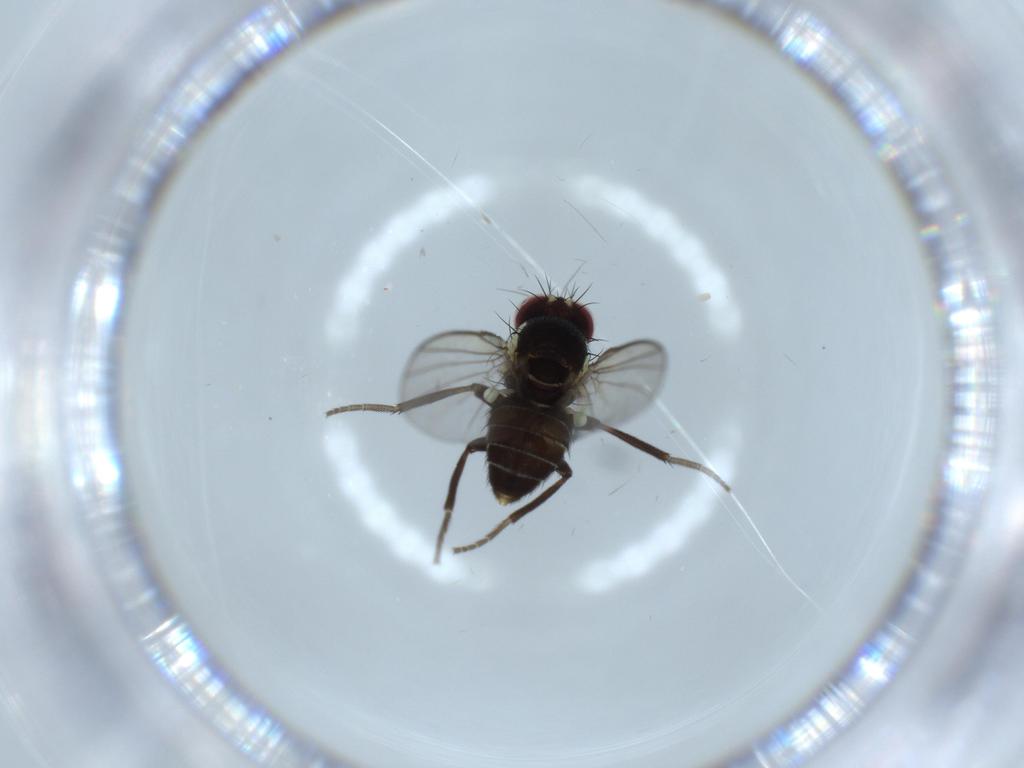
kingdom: Animalia
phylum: Arthropoda
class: Insecta
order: Diptera
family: Agromyzidae
